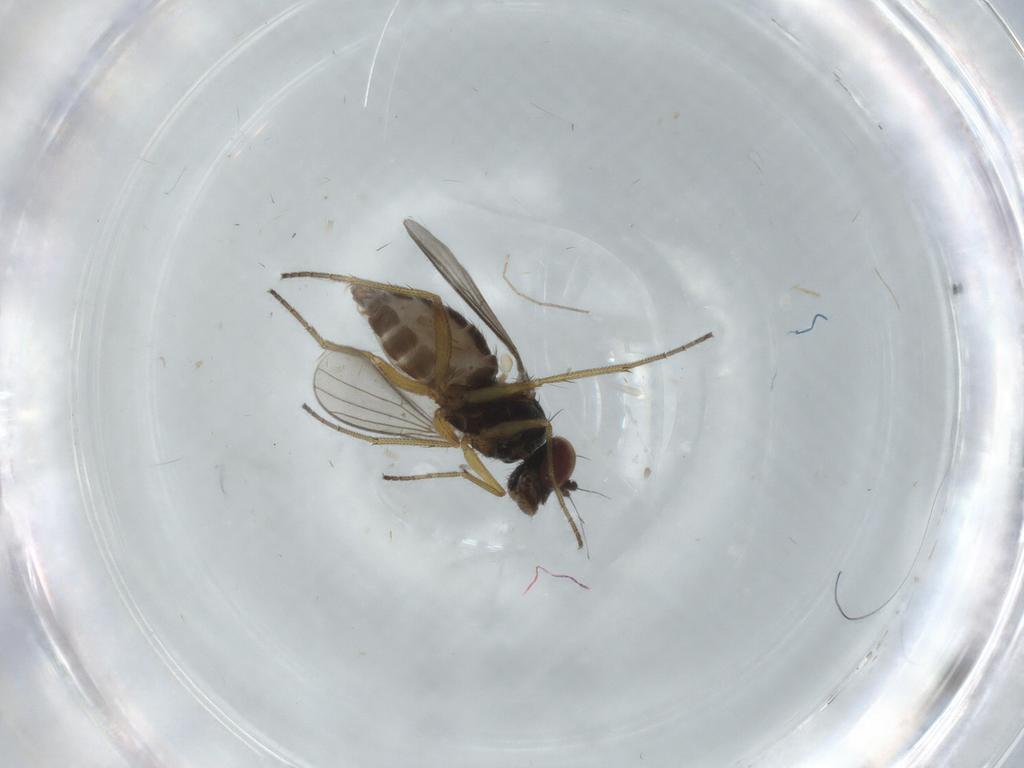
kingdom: Animalia
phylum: Arthropoda
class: Insecta
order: Diptera
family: Dolichopodidae
